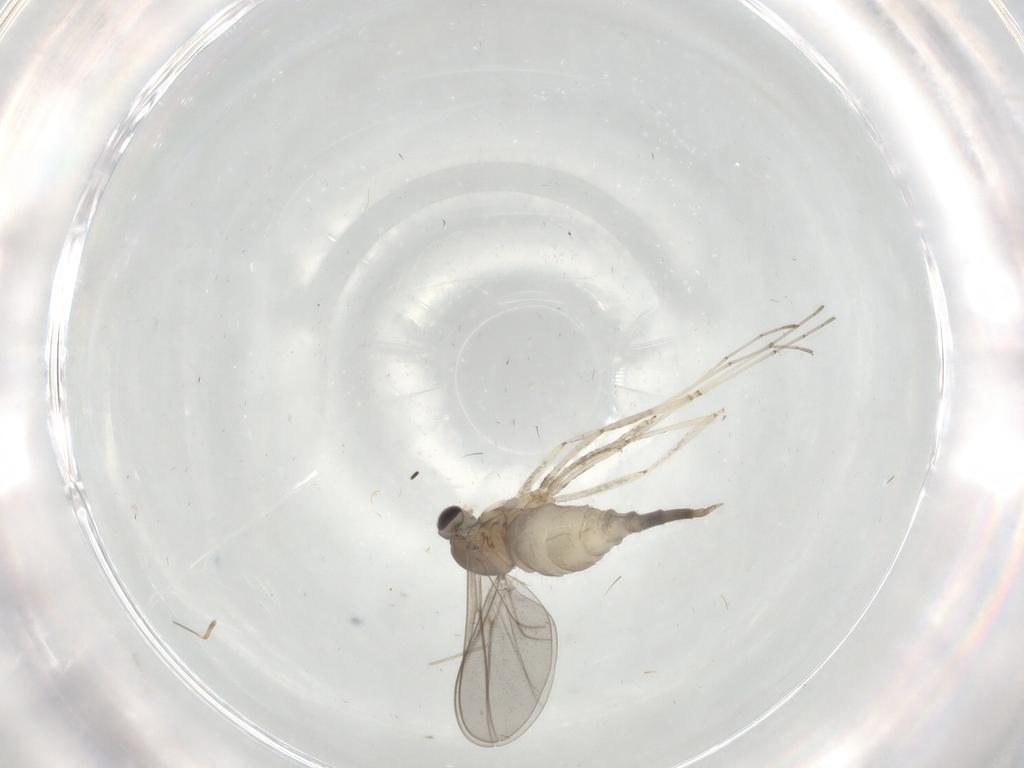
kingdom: Animalia
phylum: Arthropoda
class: Insecta
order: Diptera
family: Cecidomyiidae
